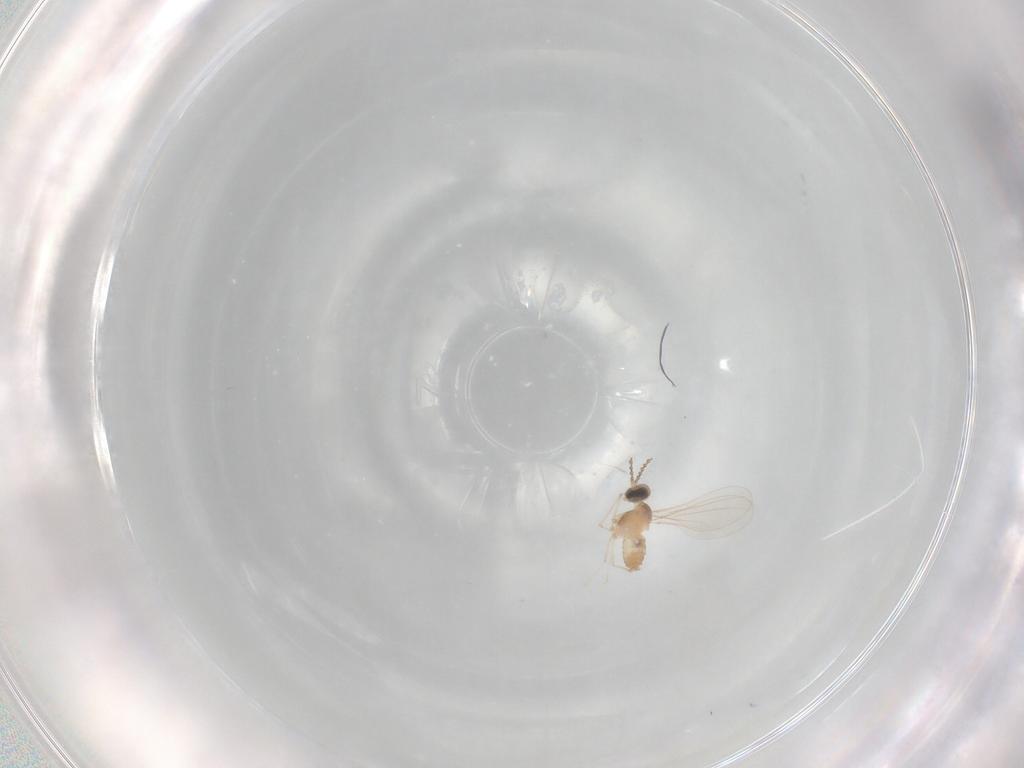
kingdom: Animalia
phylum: Arthropoda
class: Insecta
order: Diptera
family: Cecidomyiidae
